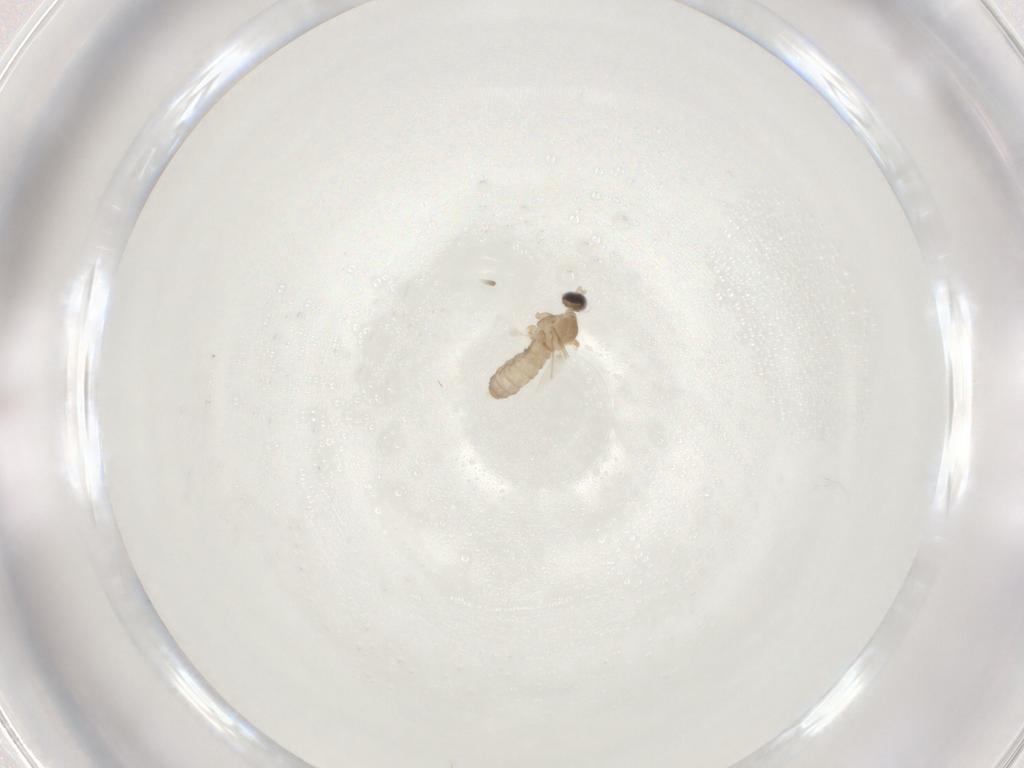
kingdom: Animalia
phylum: Arthropoda
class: Insecta
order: Diptera
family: Cecidomyiidae
